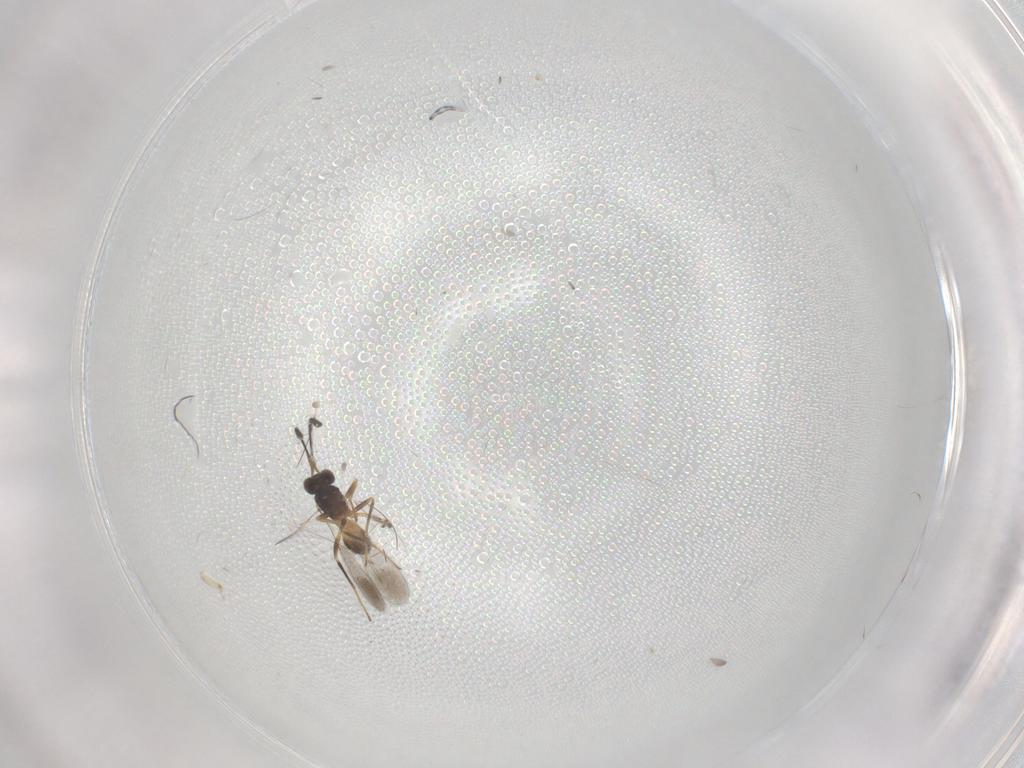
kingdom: Animalia
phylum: Arthropoda
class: Insecta
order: Hymenoptera
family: Mymaridae
